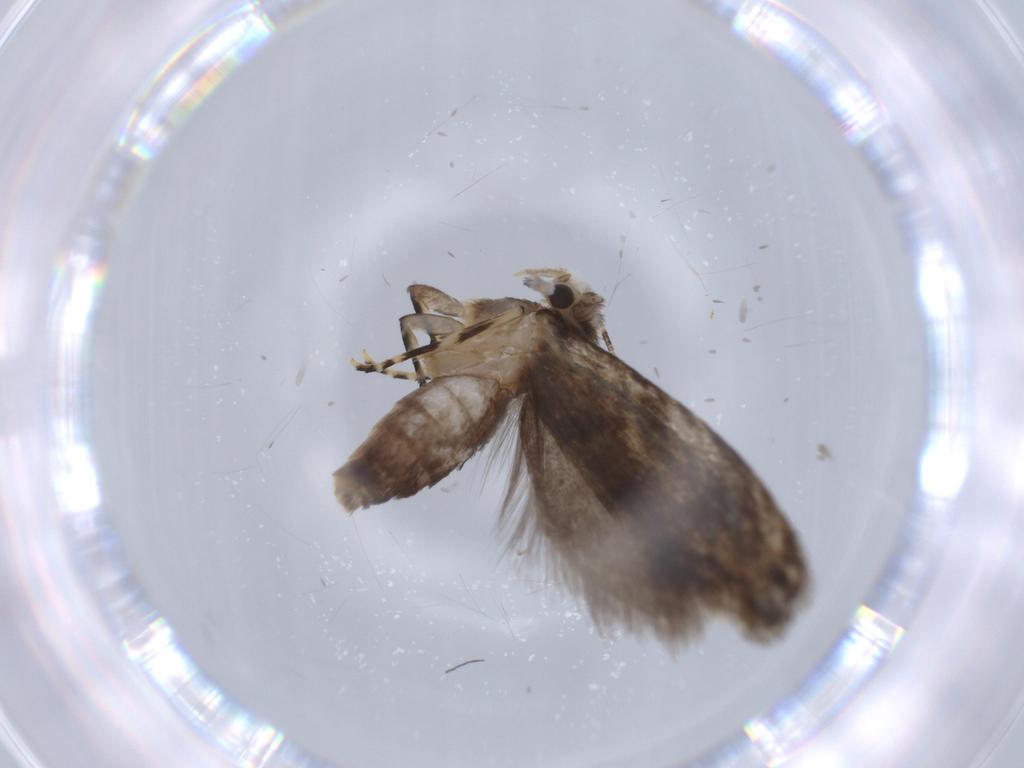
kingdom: Animalia
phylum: Arthropoda
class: Insecta
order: Lepidoptera
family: Tineidae
